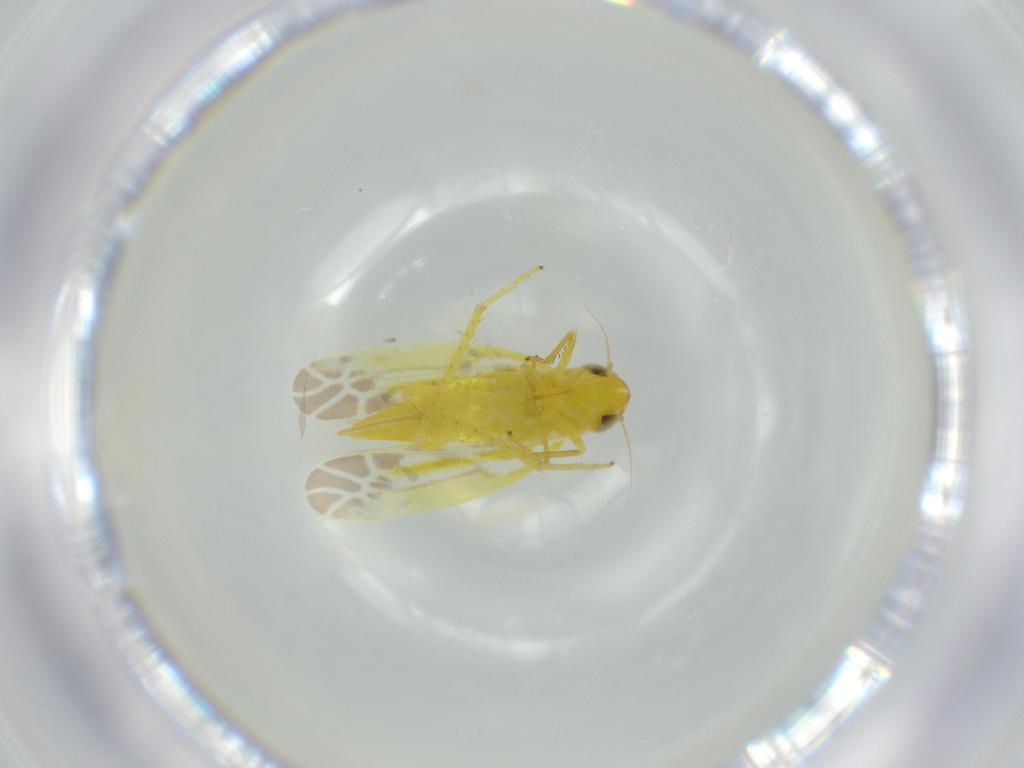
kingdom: Animalia
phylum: Arthropoda
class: Insecta
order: Hemiptera
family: Cicadellidae
